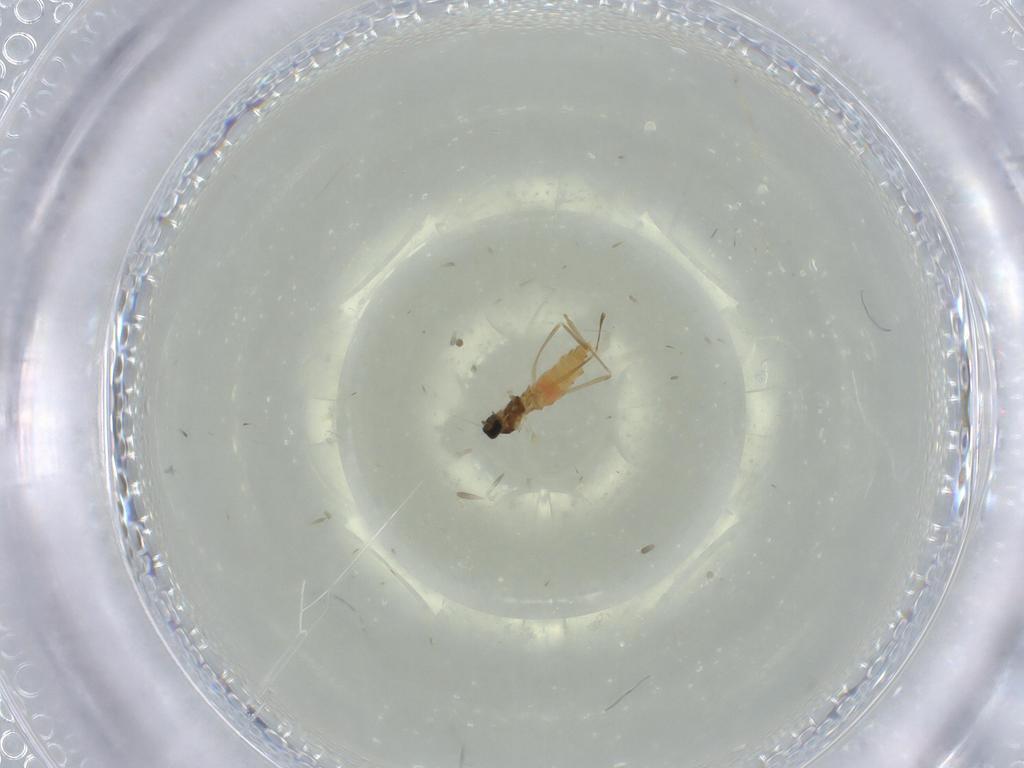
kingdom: Animalia
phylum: Arthropoda
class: Insecta
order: Diptera
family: Cecidomyiidae
